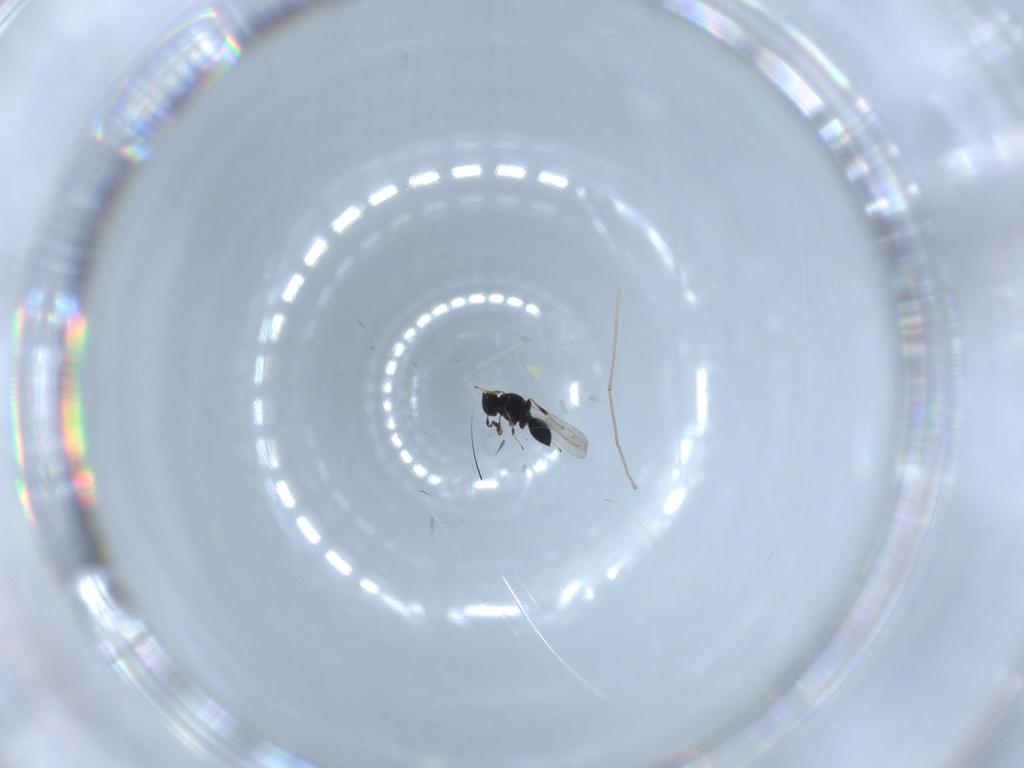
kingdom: Animalia
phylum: Arthropoda
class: Insecta
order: Hymenoptera
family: Platygastridae
